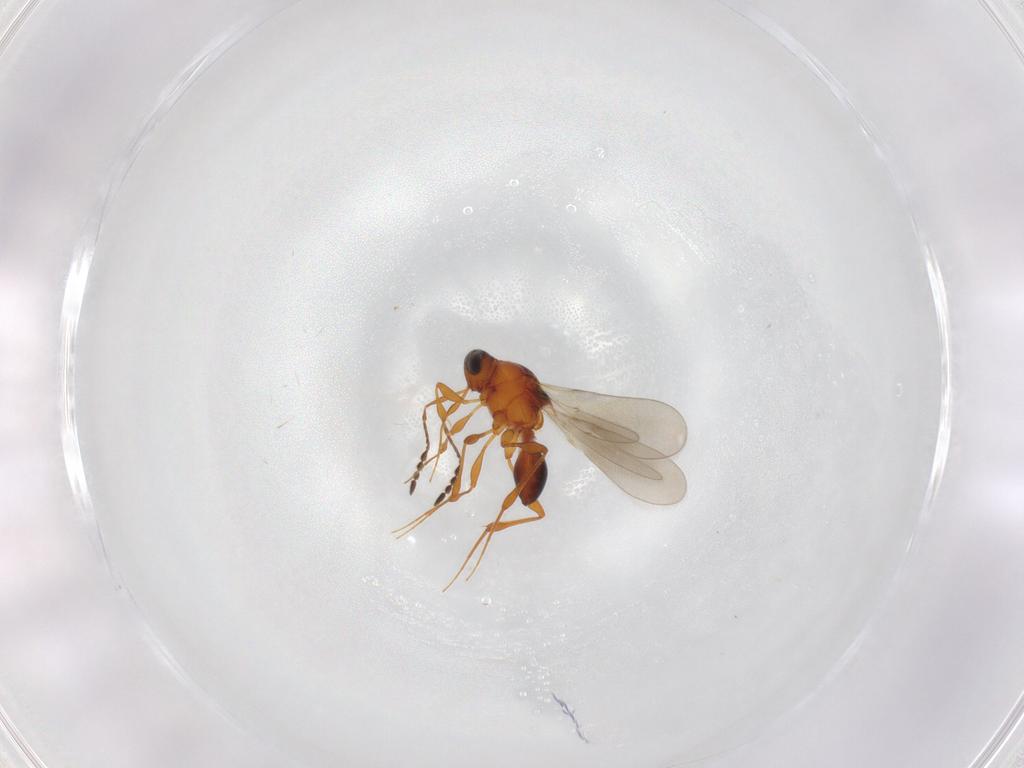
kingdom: Animalia
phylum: Arthropoda
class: Insecta
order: Hymenoptera
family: Platygastridae
